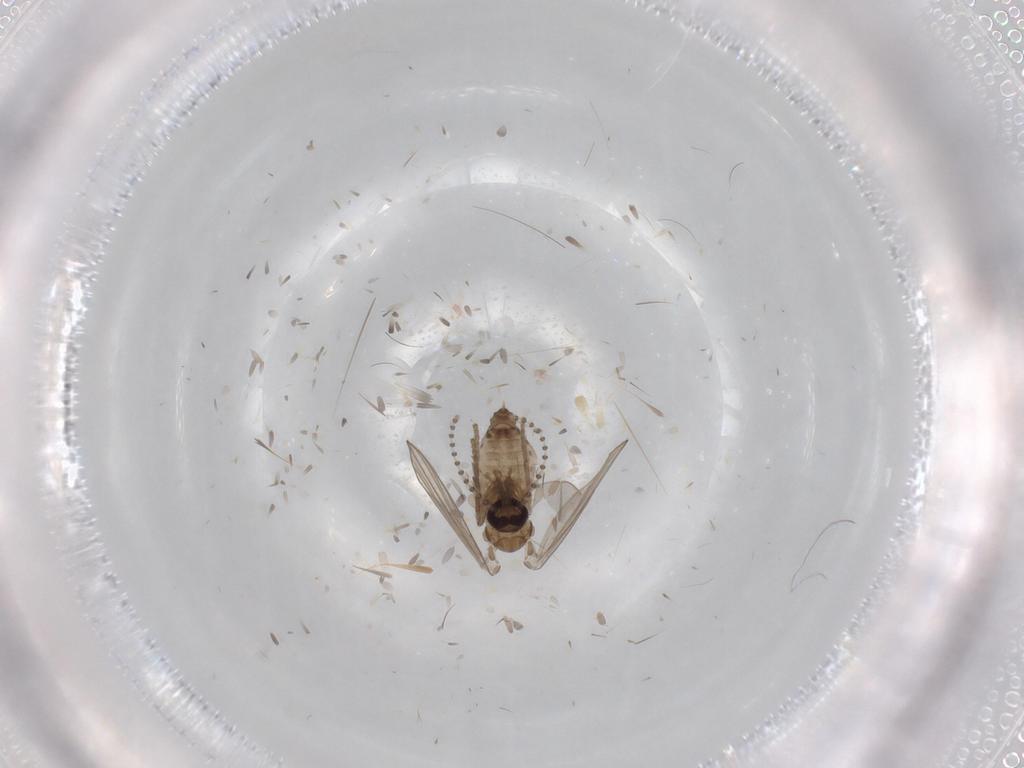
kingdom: Animalia
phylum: Arthropoda
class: Insecta
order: Diptera
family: Psychodidae
